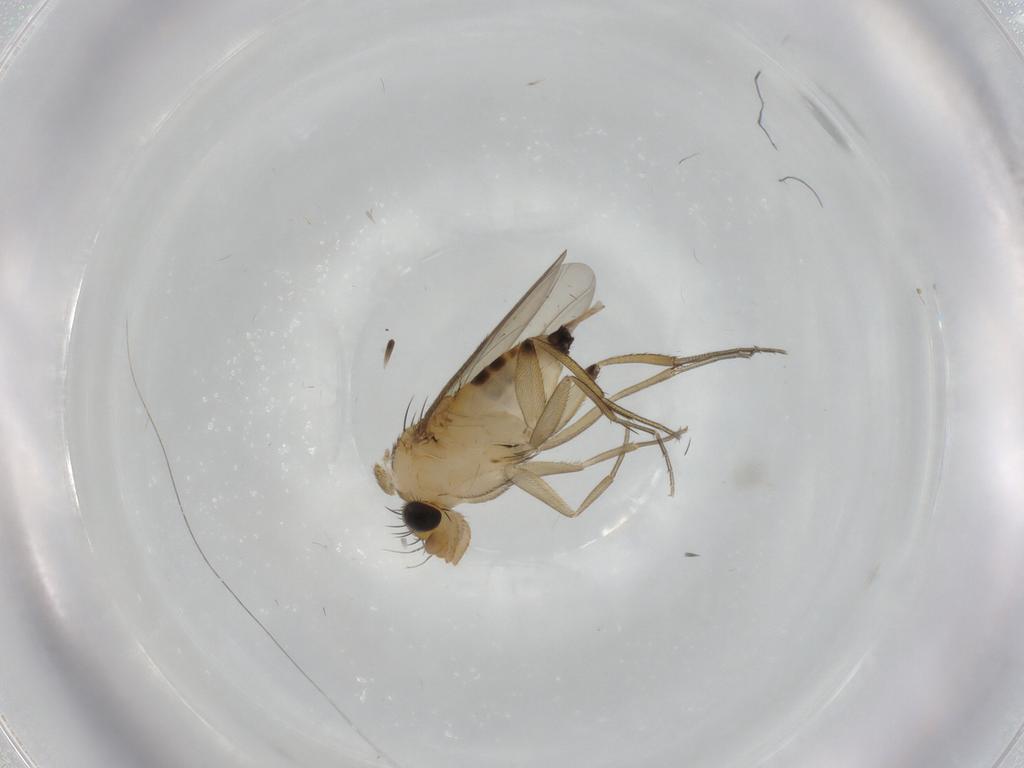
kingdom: Animalia
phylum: Arthropoda
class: Insecta
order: Diptera
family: Phoridae
